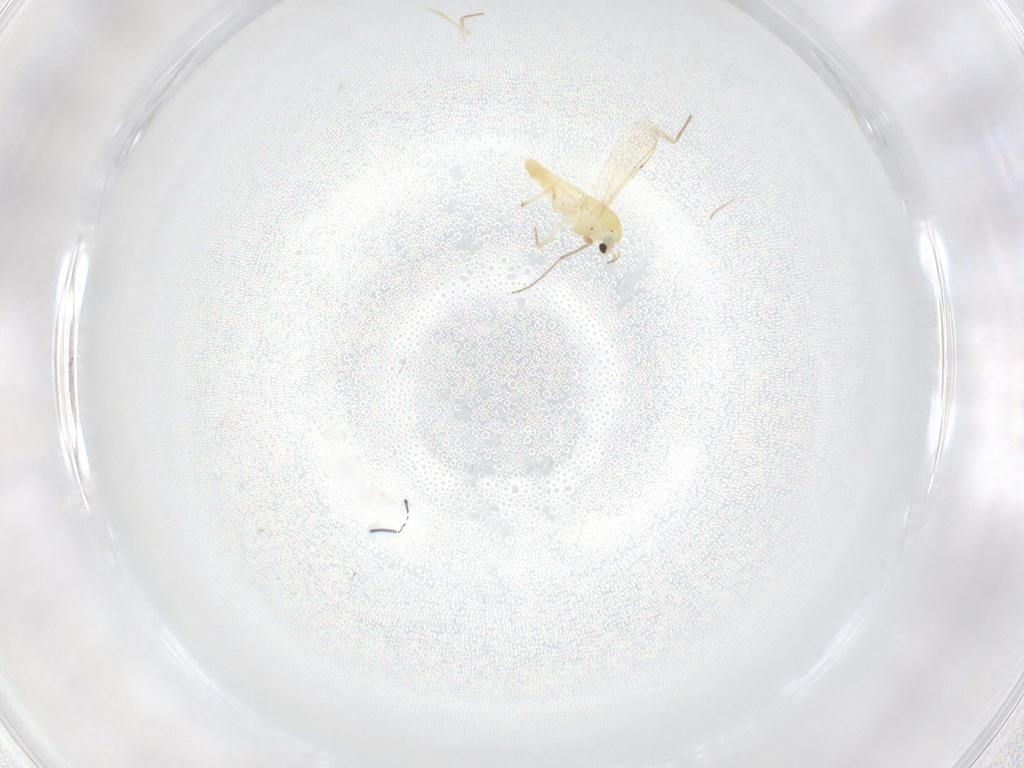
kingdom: Animalia
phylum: Arthropoda
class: Insecta
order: Diptera
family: Chironomidae
